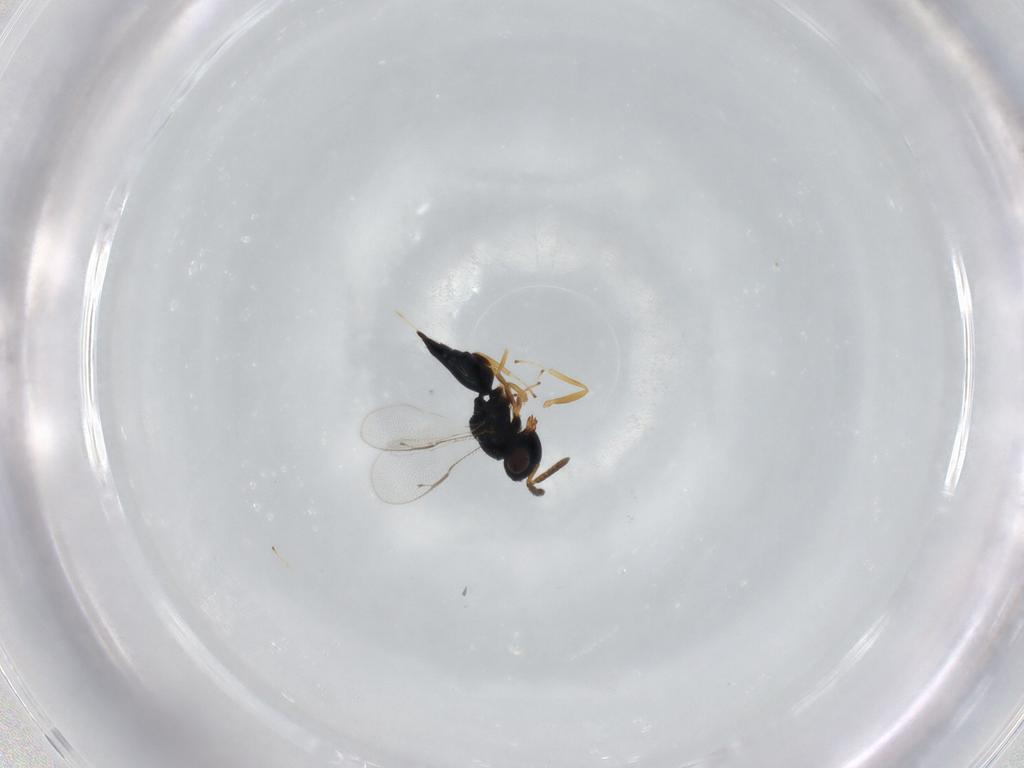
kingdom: Animalia
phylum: Arthropoda
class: Insecta
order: Hymenoptera
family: Pteromalidae
